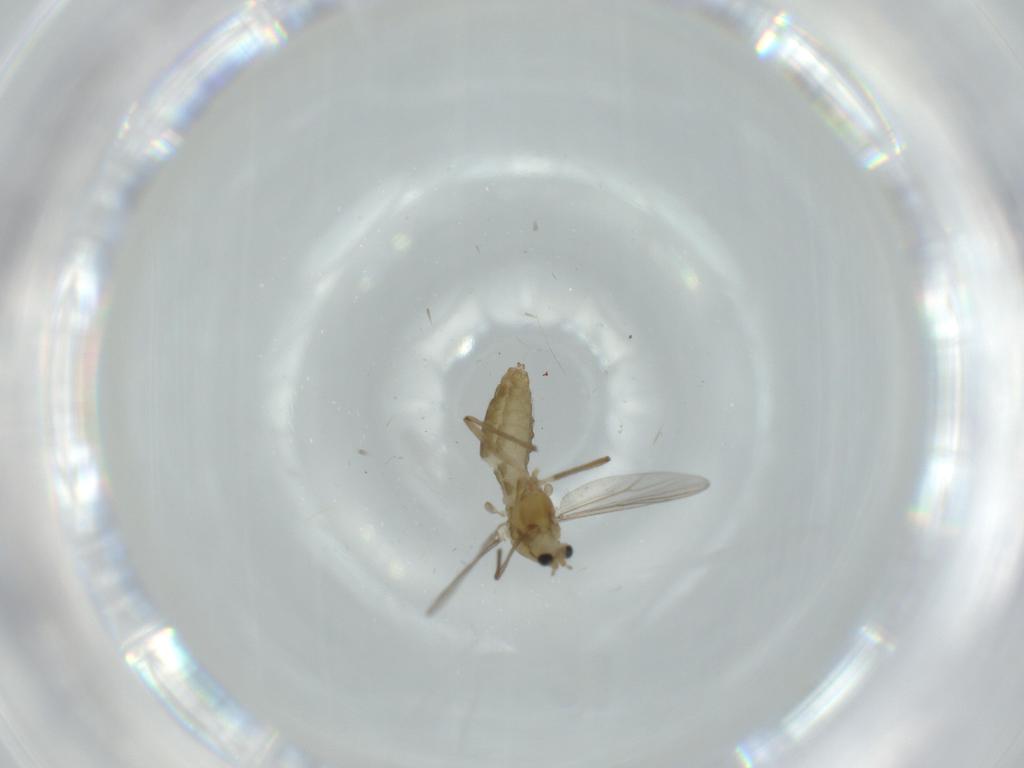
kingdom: Animalia
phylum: Arthropoda
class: Insecta
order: Diptera
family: Chironomidae
